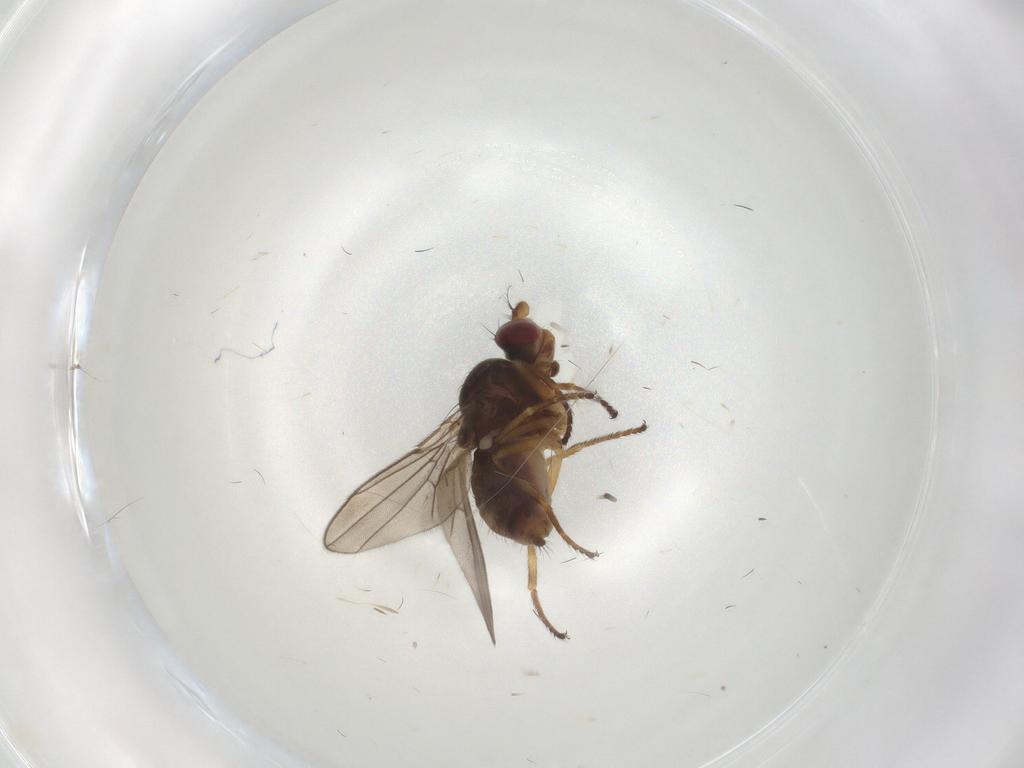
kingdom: Animalia
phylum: Arthropoda
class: Insecta
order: Diptera
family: Ephydridae
